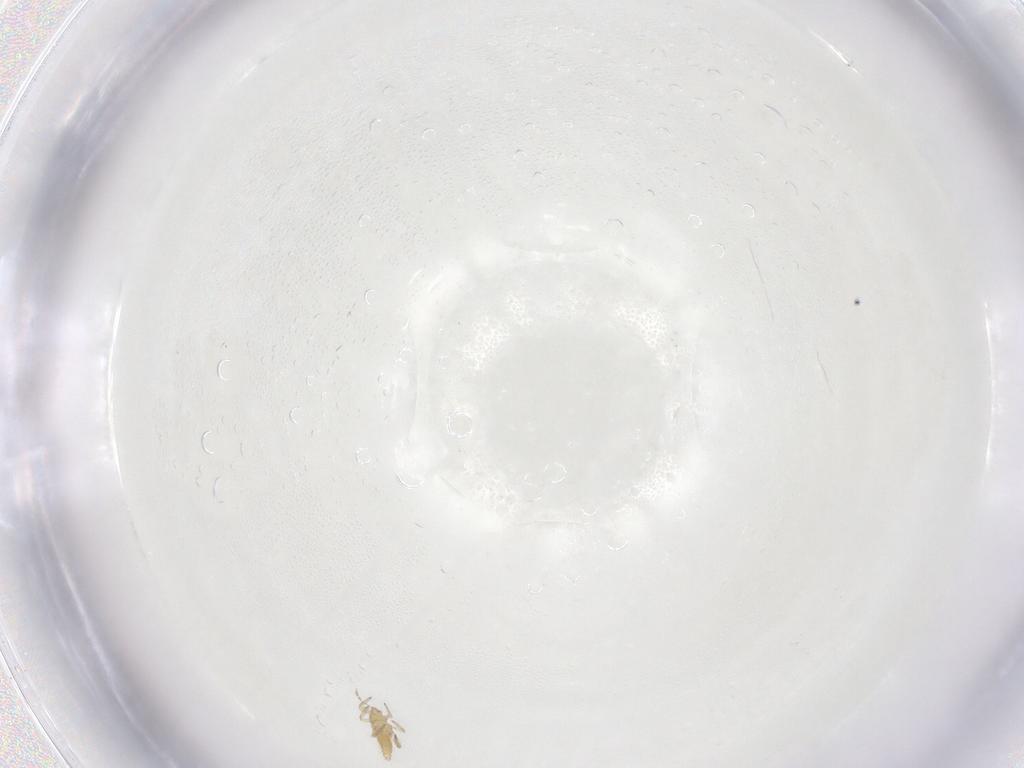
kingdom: Animalia
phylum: Arthropoda
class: Insecta
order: Thysanoptera
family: Aeolothripidae
